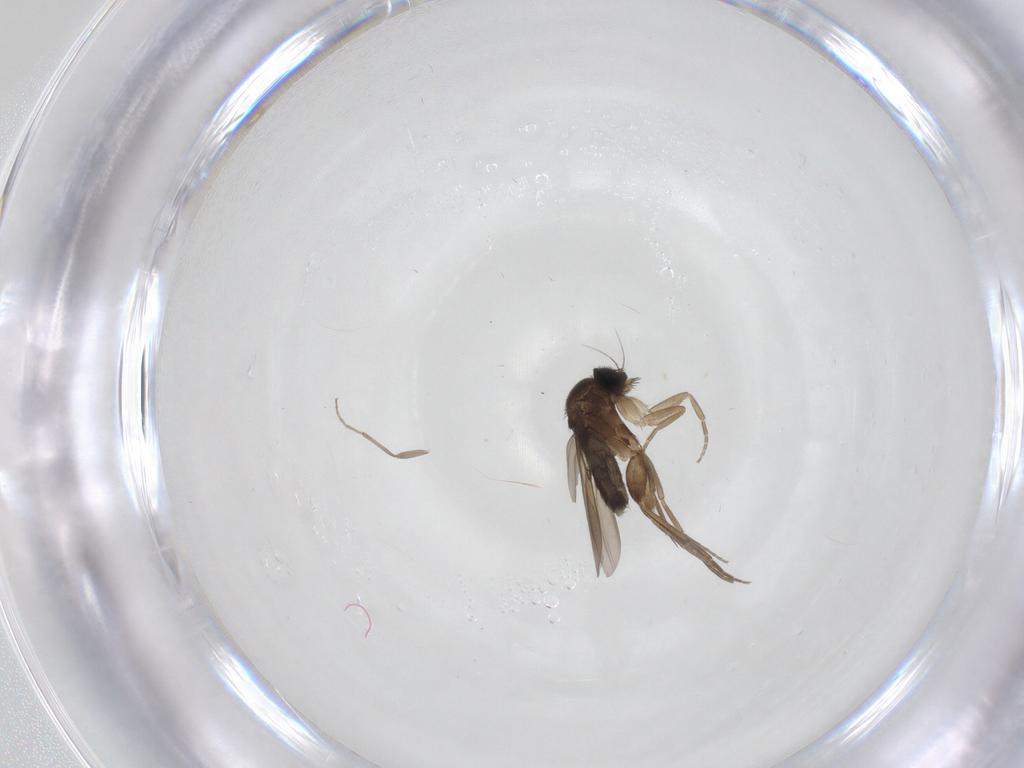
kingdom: Animalia
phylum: Arthropoda
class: Insecta
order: Diptera
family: Phoridae
